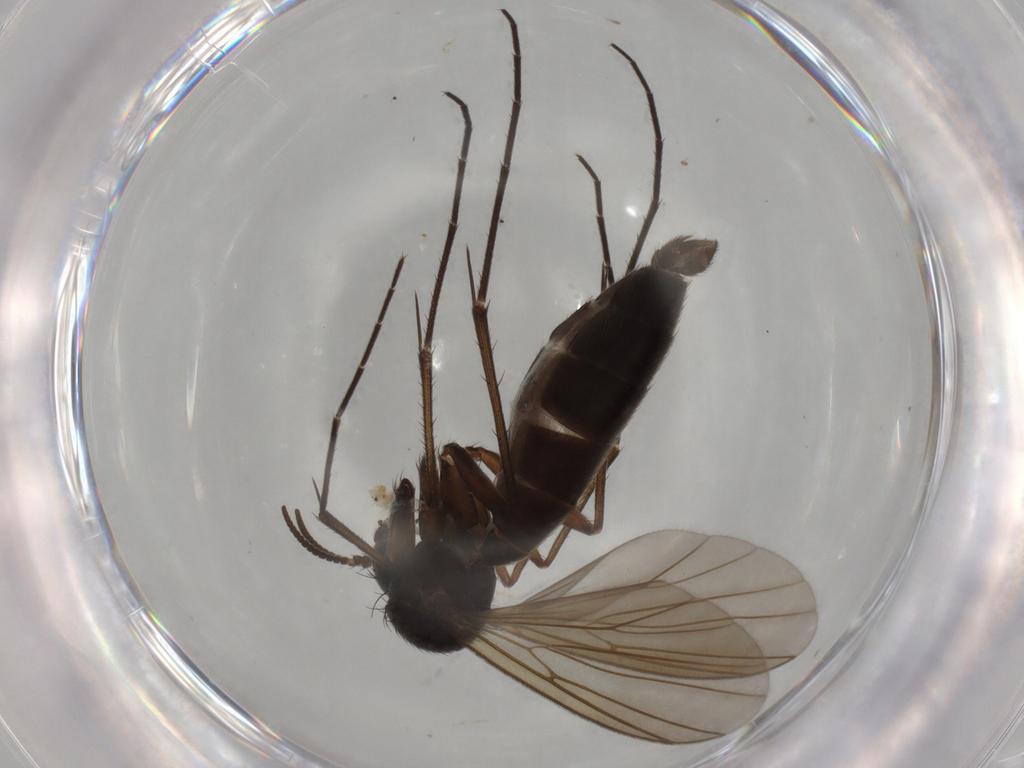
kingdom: Animalia
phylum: Arthropoda
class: Insecta
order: Diptera
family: Mycetophilidae
